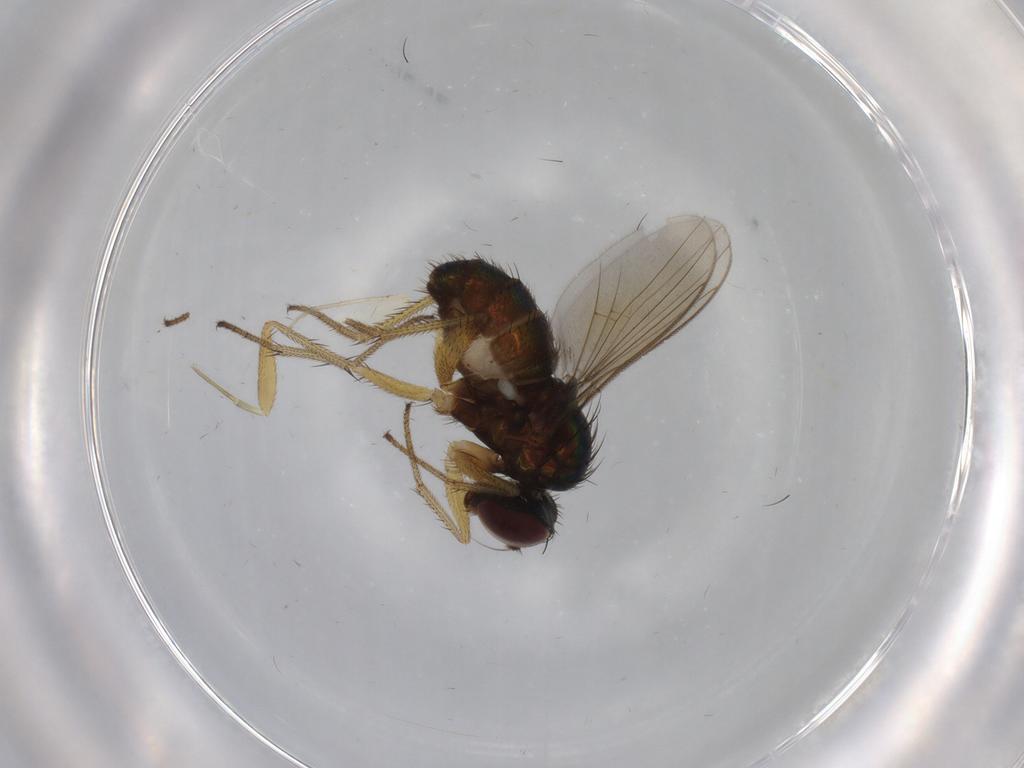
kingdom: Animalia
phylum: Arthropoda
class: Insecta
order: Diptera
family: Dolichopodidae
